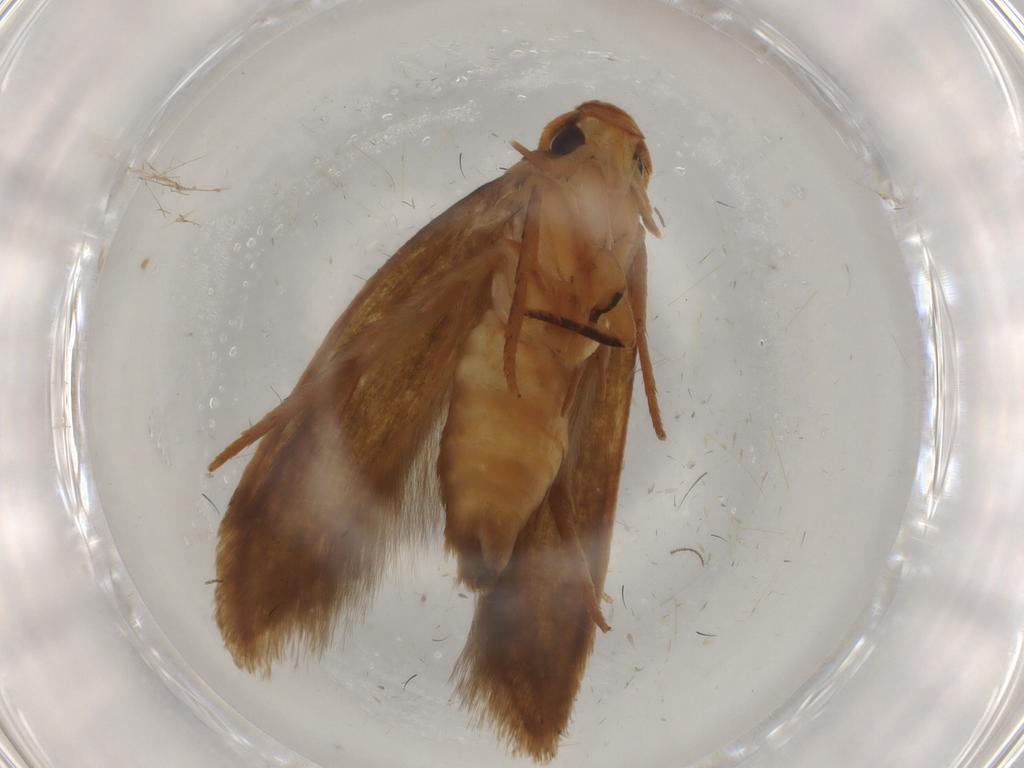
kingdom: Animalia
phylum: Arthropoda
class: Insecta
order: Lepidoptera
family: Tineidae
